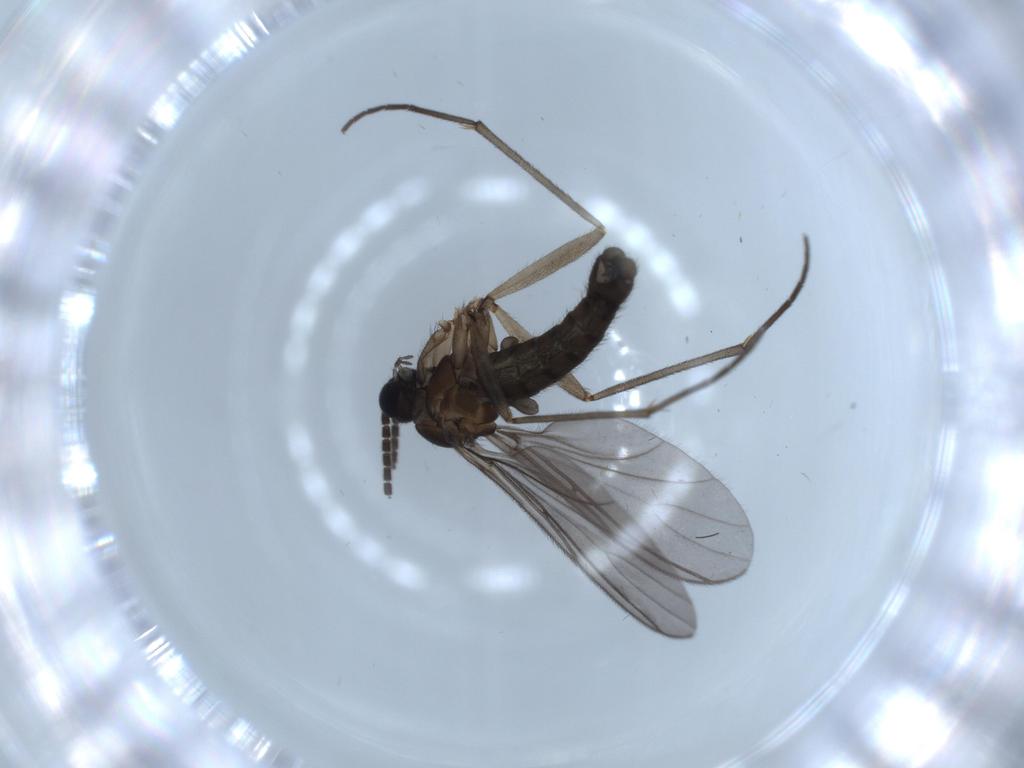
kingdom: Animalia
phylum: Arthropoda
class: Insecta
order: Diptera
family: Sciaridae
